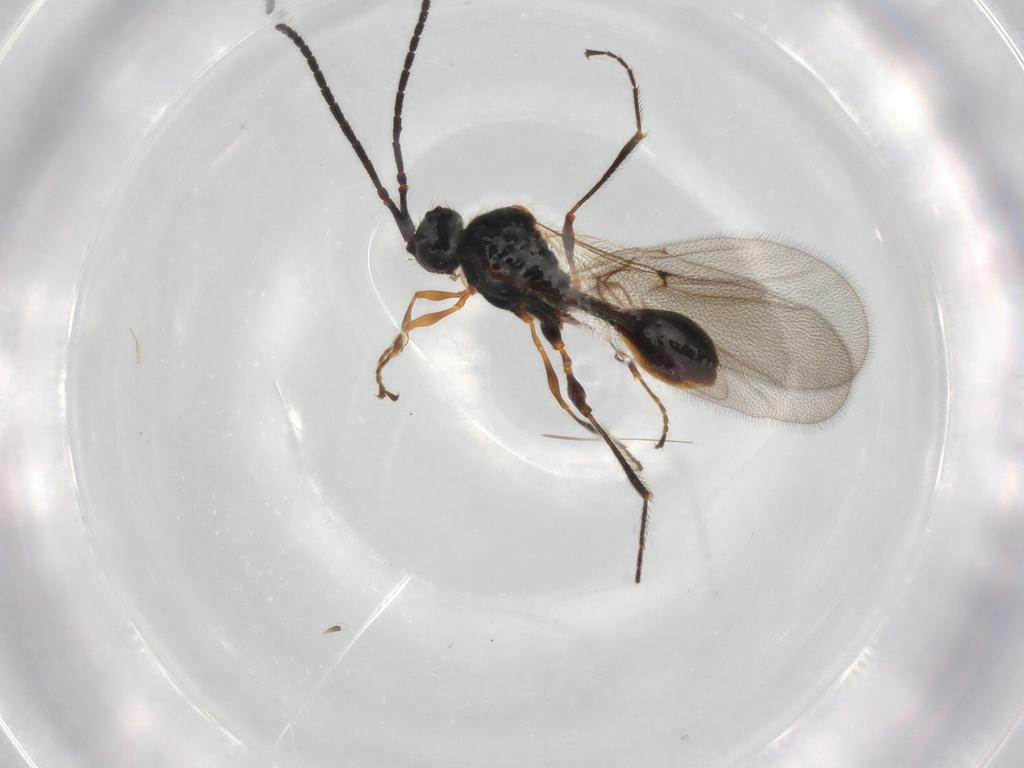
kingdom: Animalia
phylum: Arthropoda
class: Insecta
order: Hymenoptera
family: Diapriidae
